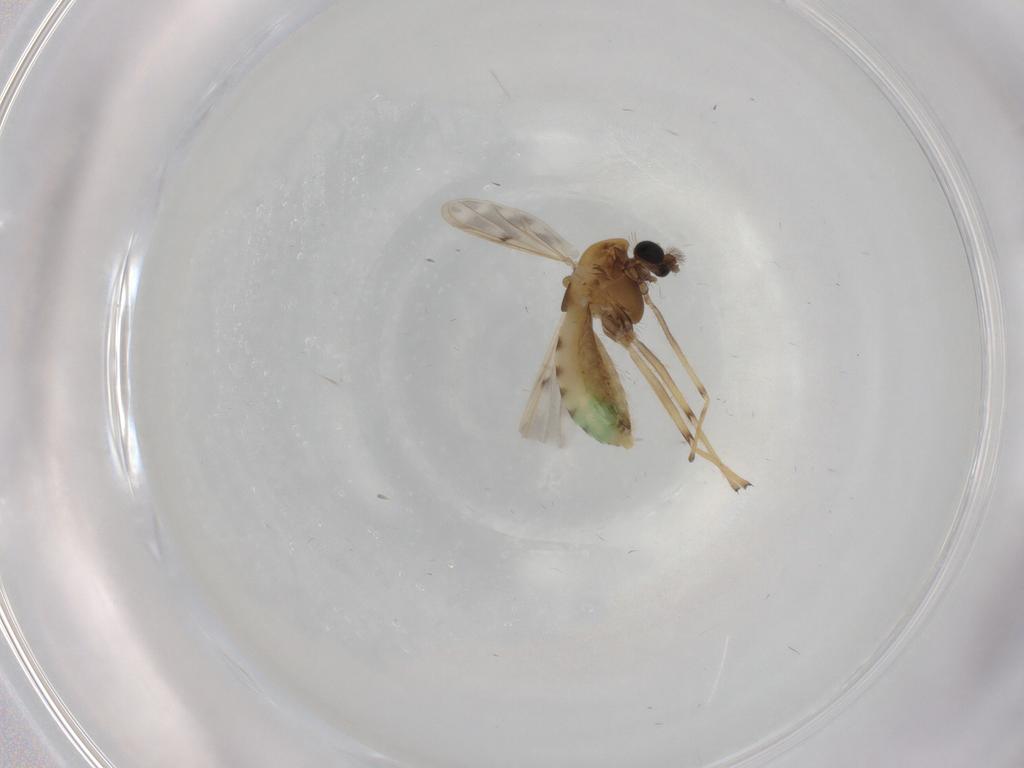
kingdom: Animalia
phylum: Arthropoda
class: Insecta
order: Diptera
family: Chironomidae
